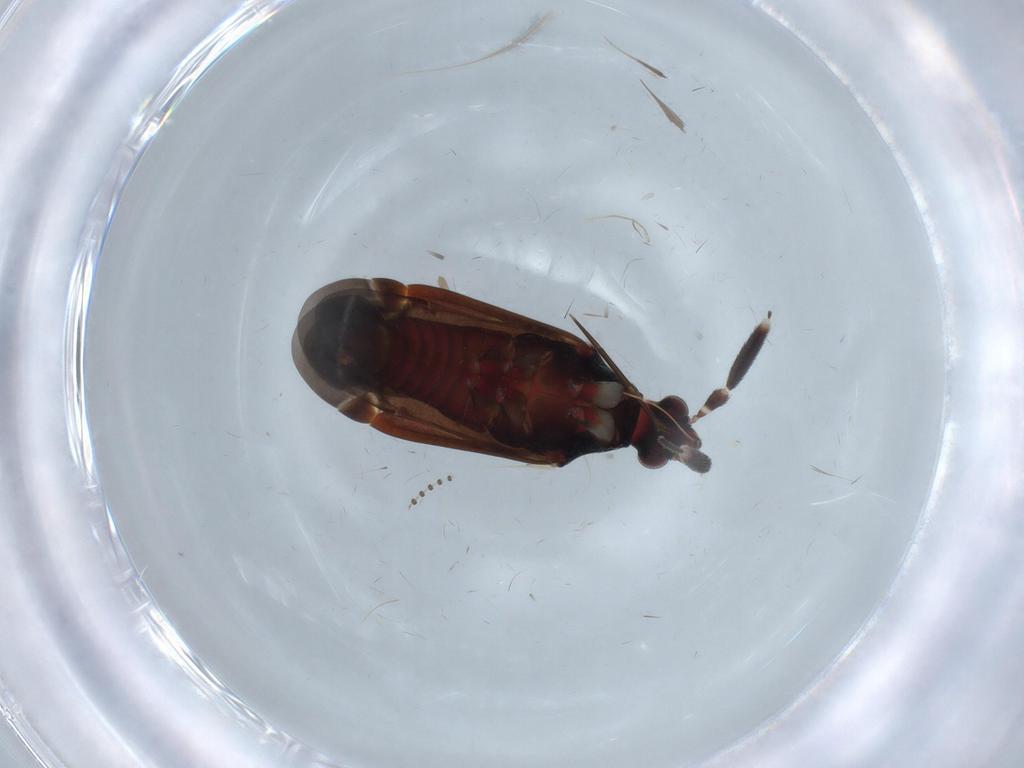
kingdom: Animalia
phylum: Arthropoda
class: Insecta
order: Hemiptera
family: Miridae
